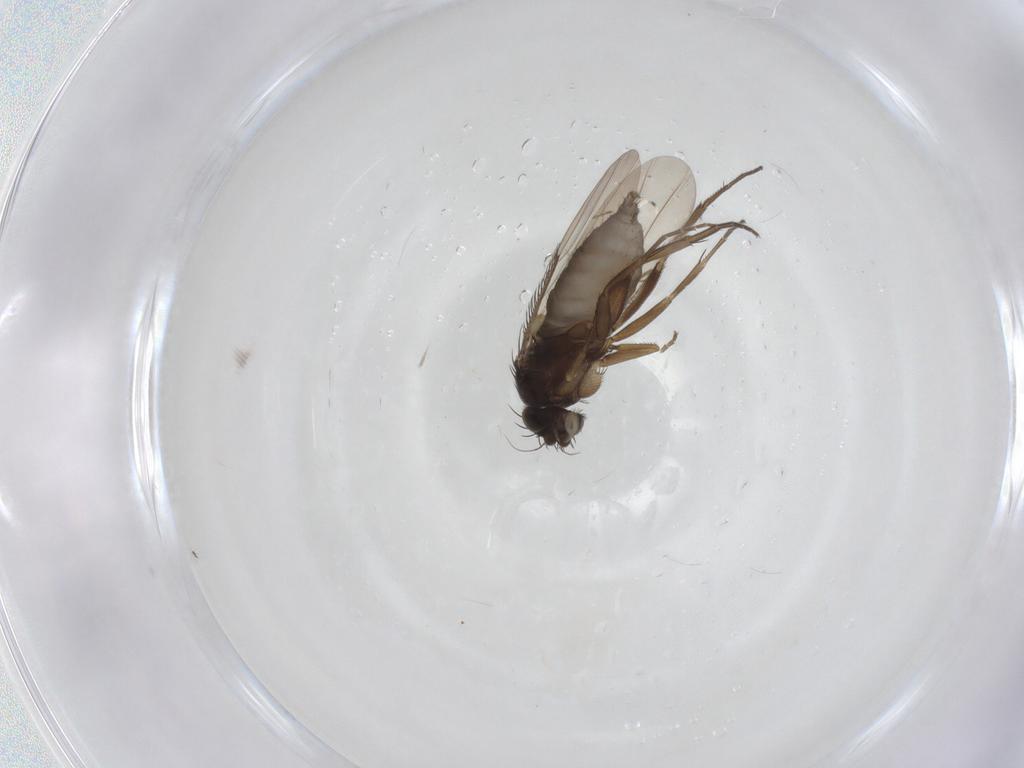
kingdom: Animalia
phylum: Arthropoda
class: Insecta
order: Diptera
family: Phoridae
